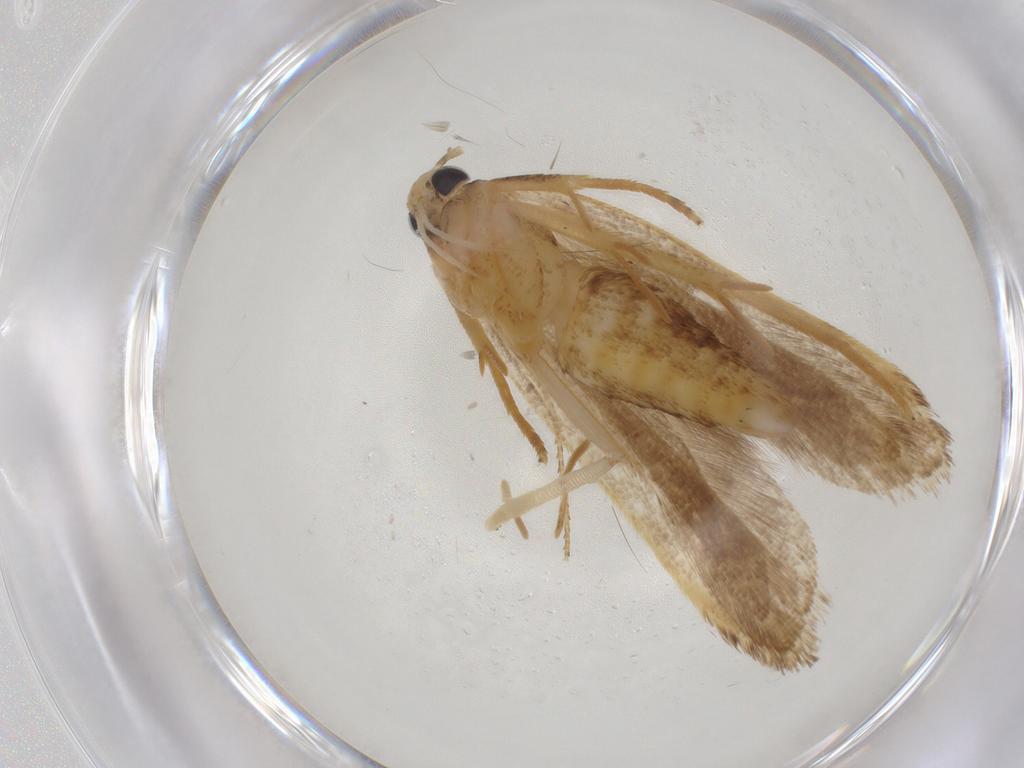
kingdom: Animalia
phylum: Arthropoda
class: Insecta
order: Lepidoptera
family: Gelechiidae
